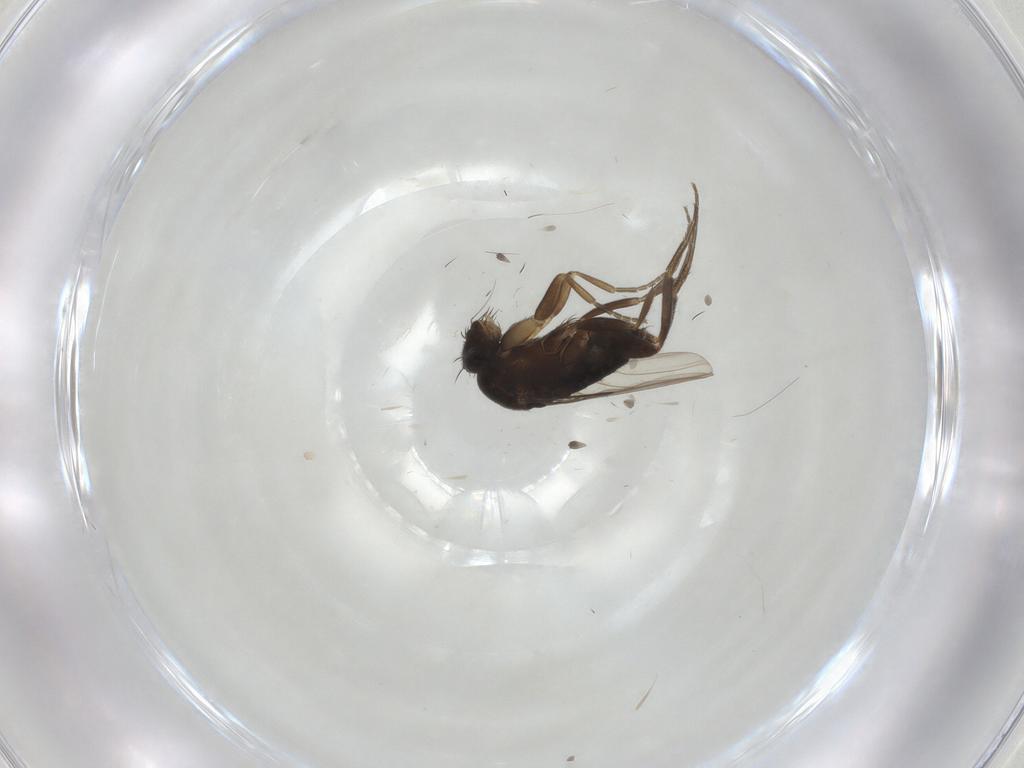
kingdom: Animalia
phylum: Arthropoda
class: Insecta
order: Diptera
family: Phoridae
